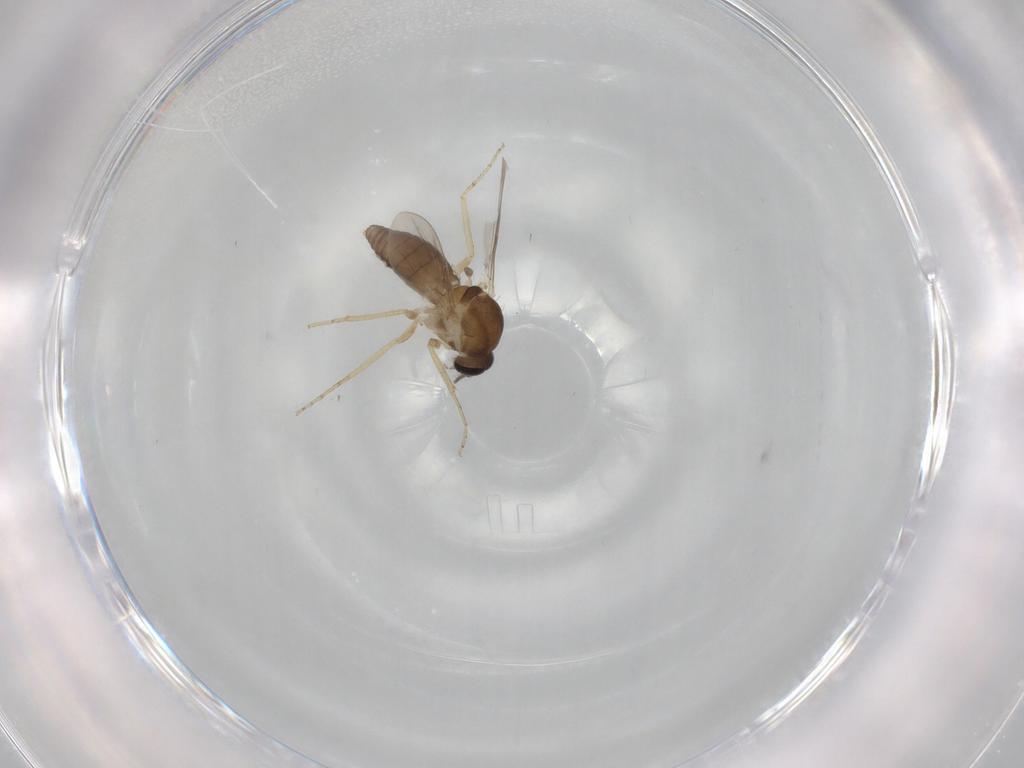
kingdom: Animalia
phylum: Arthropoda
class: Insecta
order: Diptera
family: Ceratopogonidae
